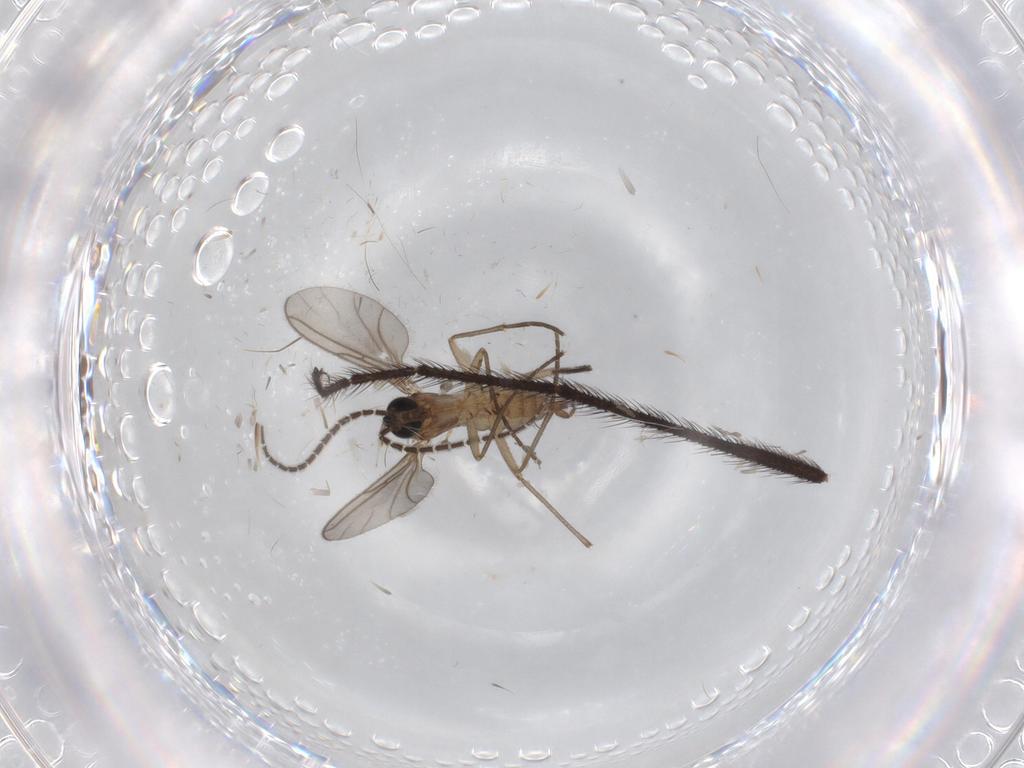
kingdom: Animalia
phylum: Arthropoda
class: Insecta
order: Diptera
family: Sciaridae
